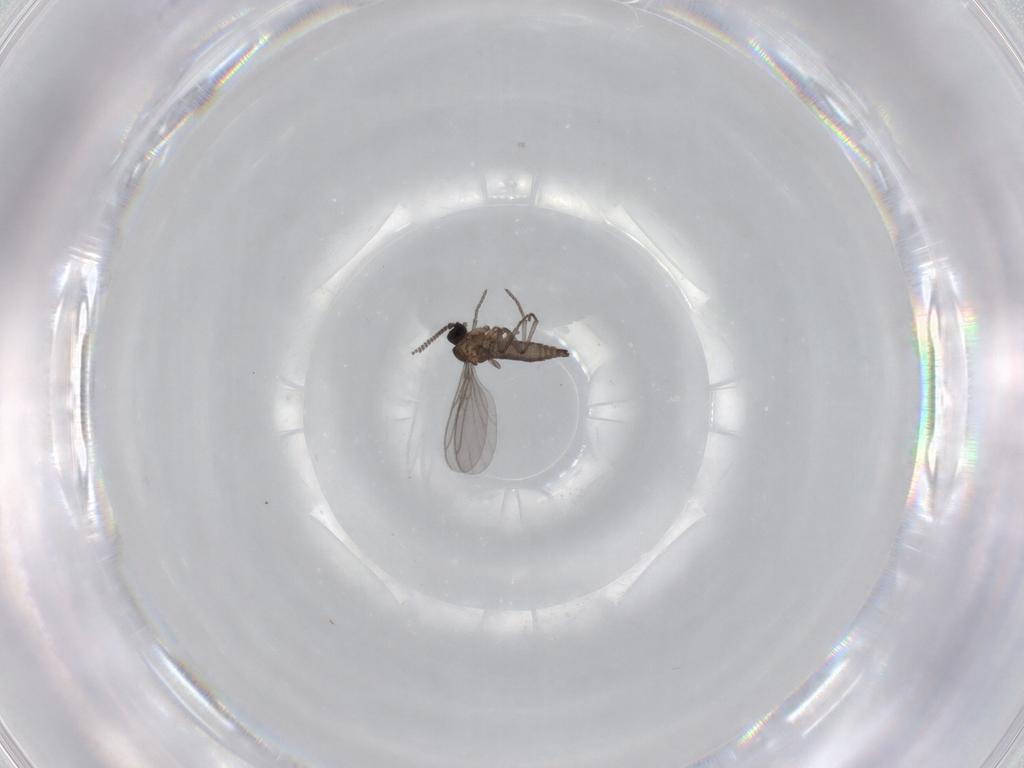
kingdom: Animalia
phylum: Arthropoda
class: Insecta
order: Diptera
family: Sciaridae
